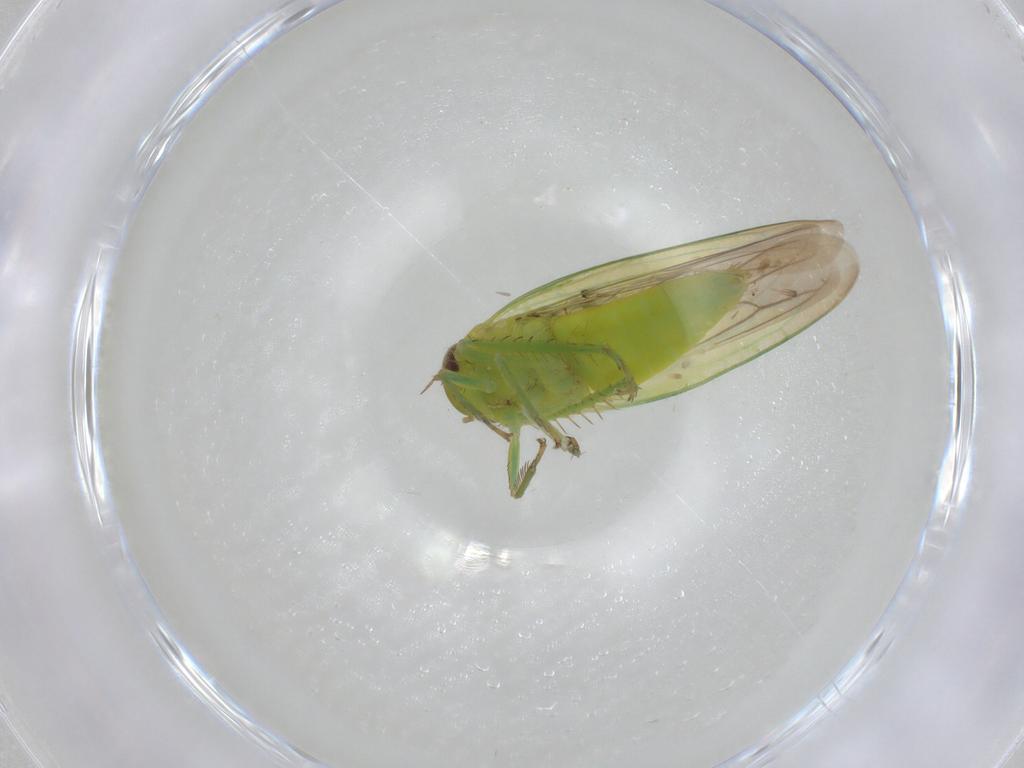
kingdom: Animalia
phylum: Arthropoda
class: Insecta
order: Hemiptera
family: Cicadellidae
